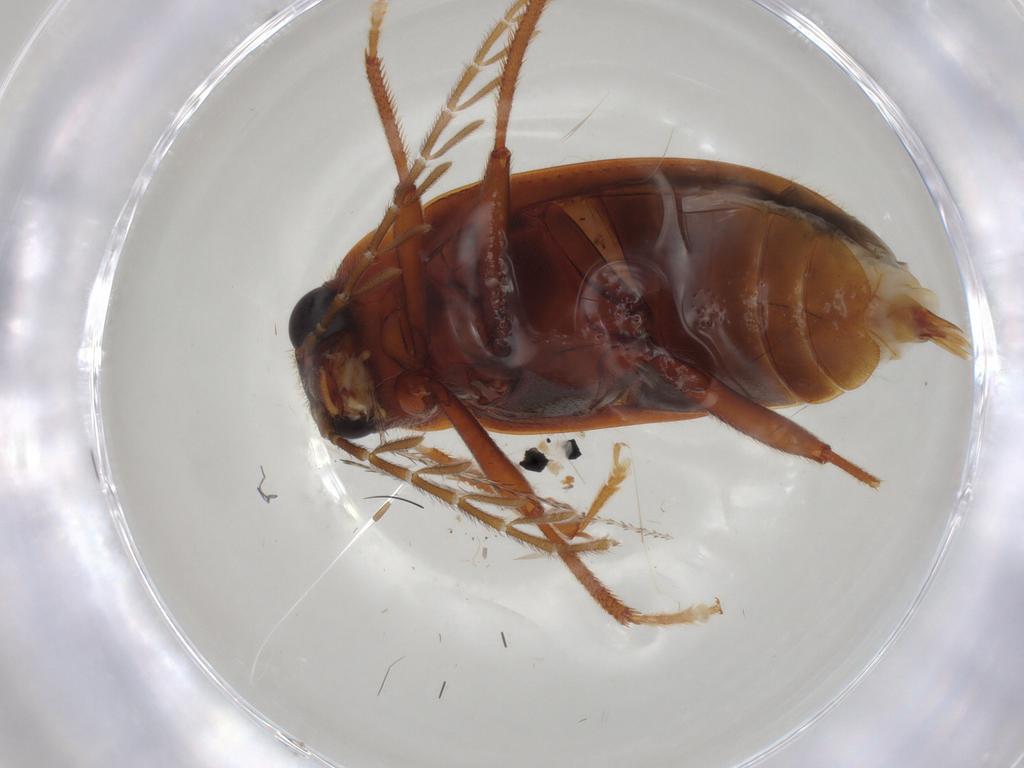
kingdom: Animalia
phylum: Arthropoda
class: Insecta
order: Coleoptera
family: Ptilodactylidae
